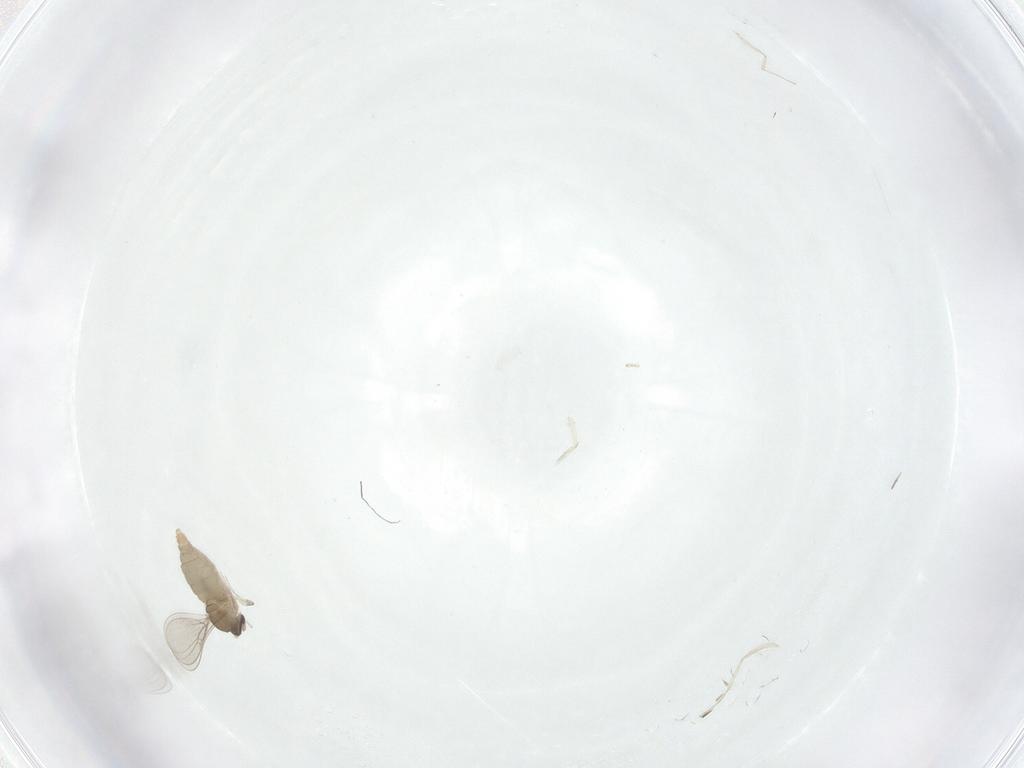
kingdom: Animalia
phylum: Arthropoda
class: Insecta
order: Diptera
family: Cecidomyiidae
